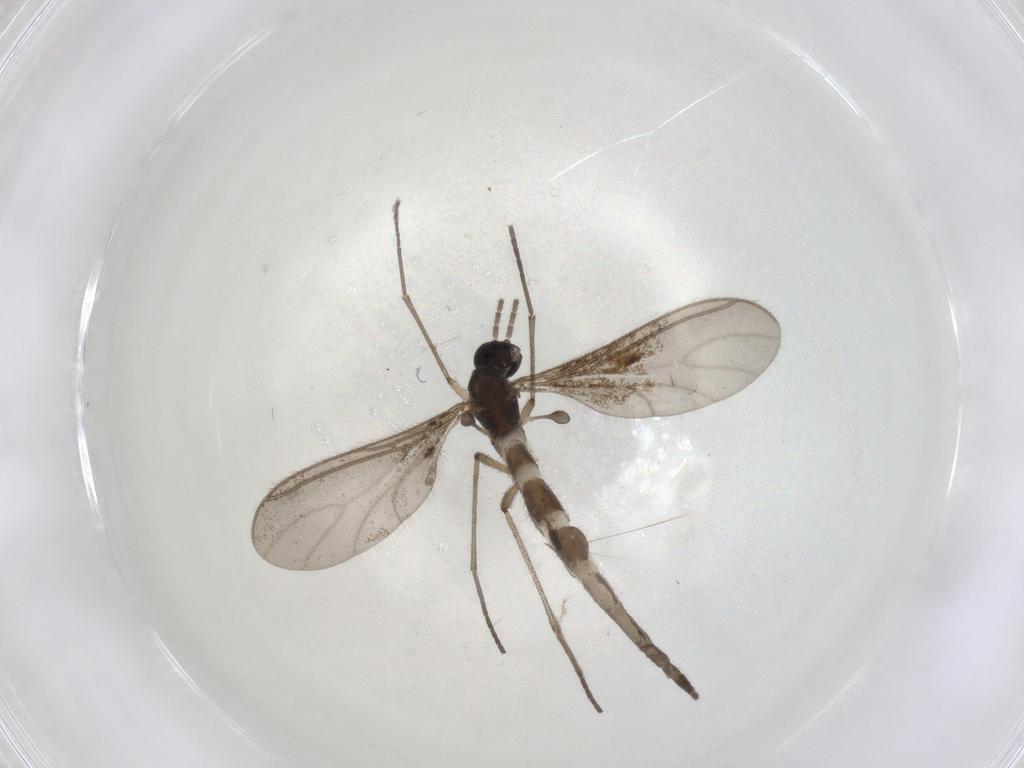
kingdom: Animalia
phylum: Arthropoda
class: Insecta
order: Diptera
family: Sciaridae
